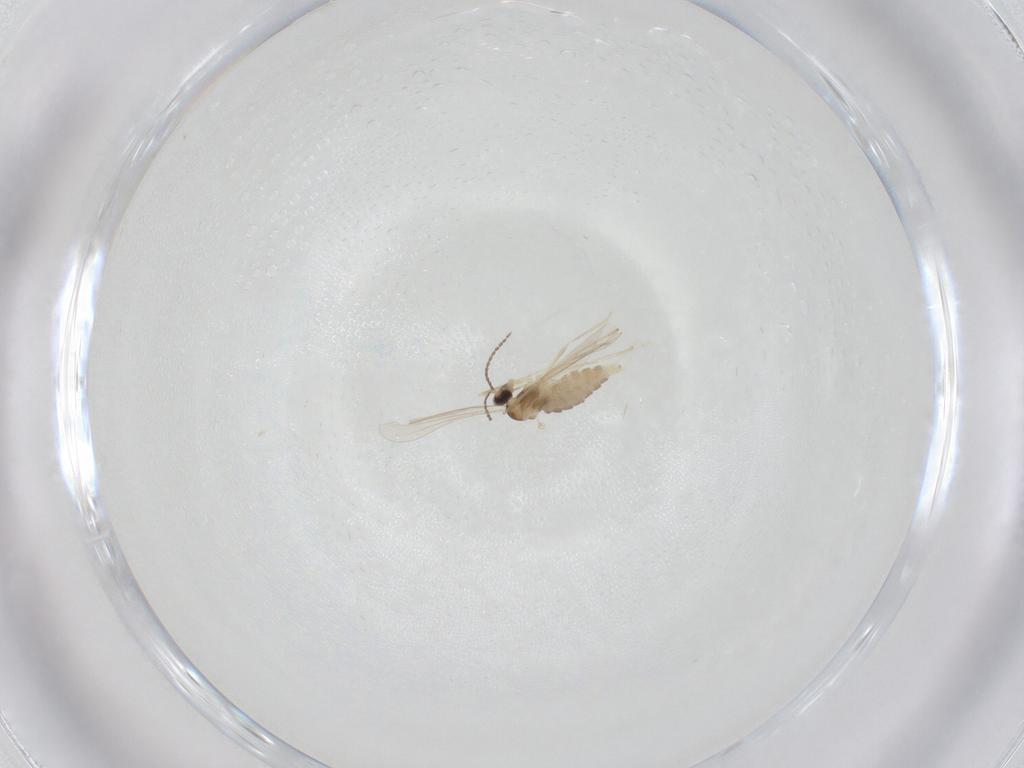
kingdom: Animalia
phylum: Arthropoda
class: Insecta
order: Diptera
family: Cecidomyiidae
